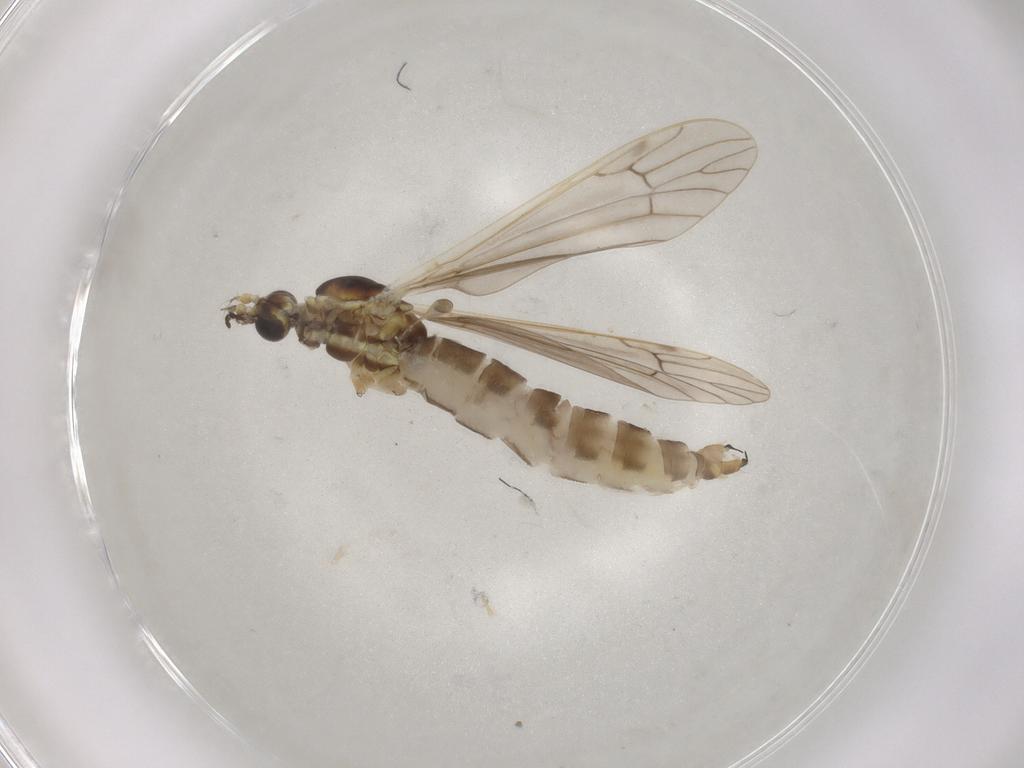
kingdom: Animalia
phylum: Arthropoda
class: Insecta
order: Diptera
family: Limoniidae
